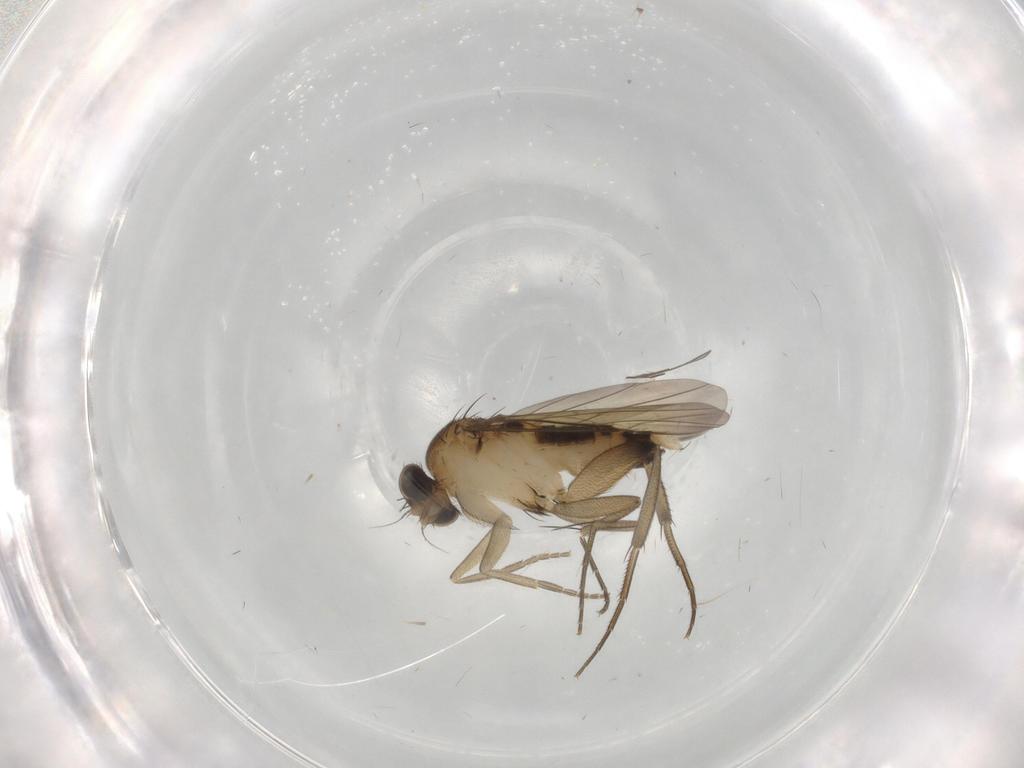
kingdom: Animalia
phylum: Arthropoda
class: Insecta
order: Diptera
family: Phoridae
